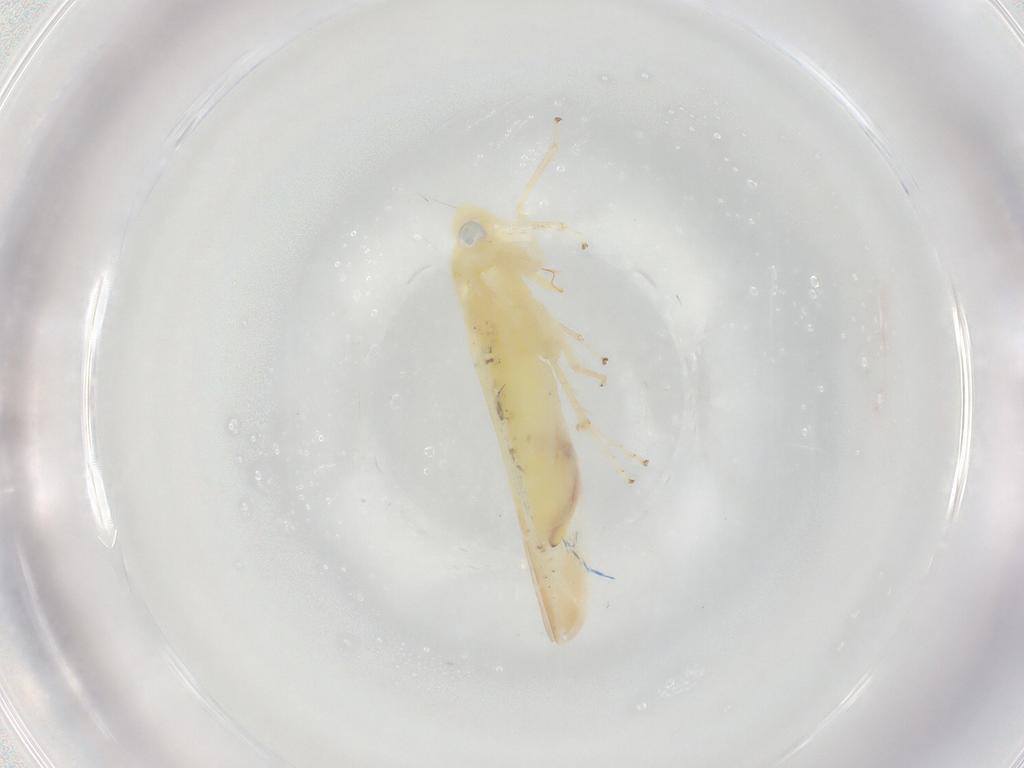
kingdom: Animalia
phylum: Arthropoda
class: Insecta
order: Hemiptera
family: Cicadellidae
